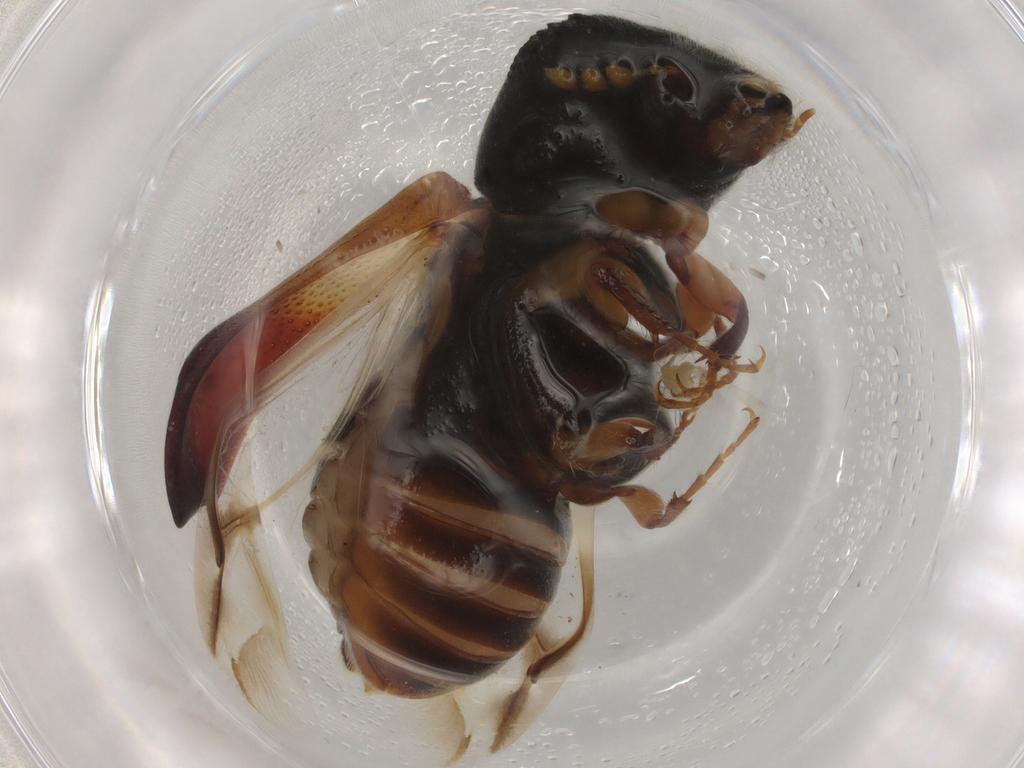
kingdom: Animalia
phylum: Arthropoda
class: Insecta
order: Coleoptera
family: Bostrichidae
